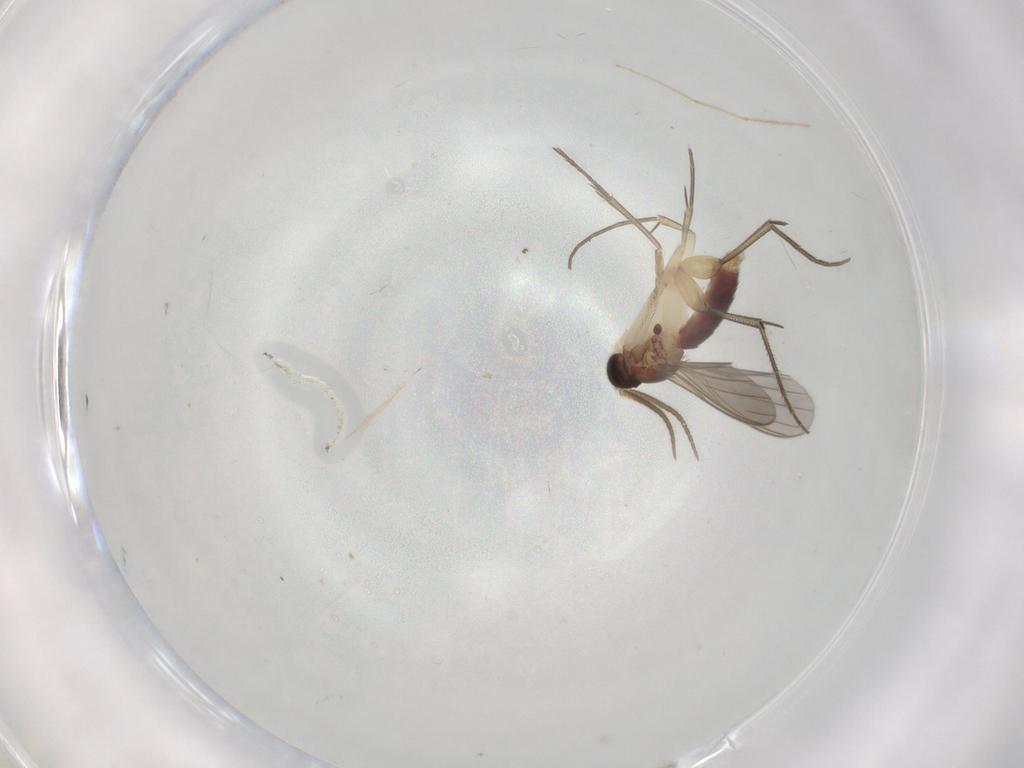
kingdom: Animalia
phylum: Arthropoda
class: Insecta
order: Diptera
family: Mycetophilidae
